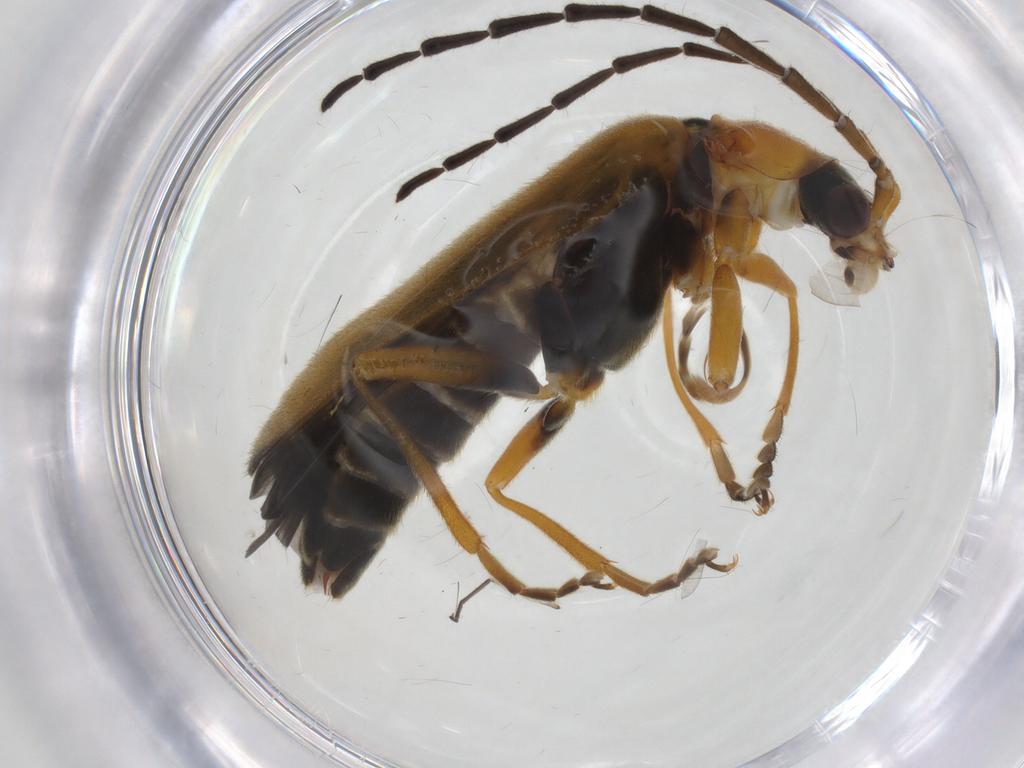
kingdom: Animalia
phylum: Arthropoda
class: Insecta
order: Coleoptera
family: Cantharidae
